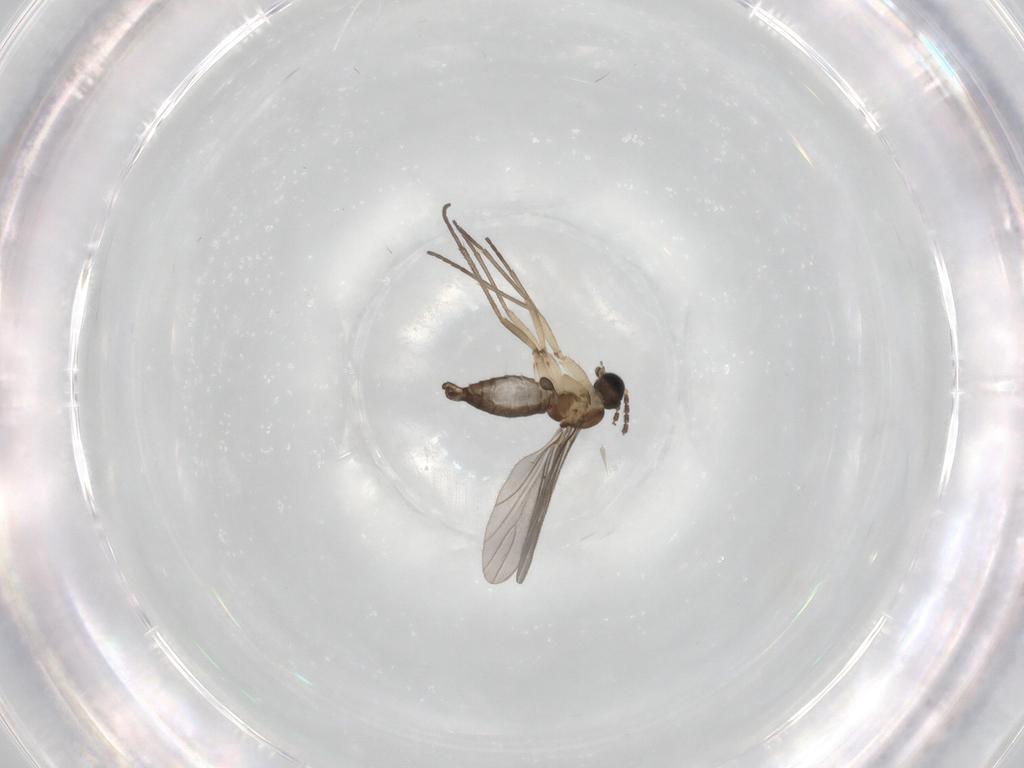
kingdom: Animalia
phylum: Arthropoda
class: Insecta
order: Diptera
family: Sciaridae
